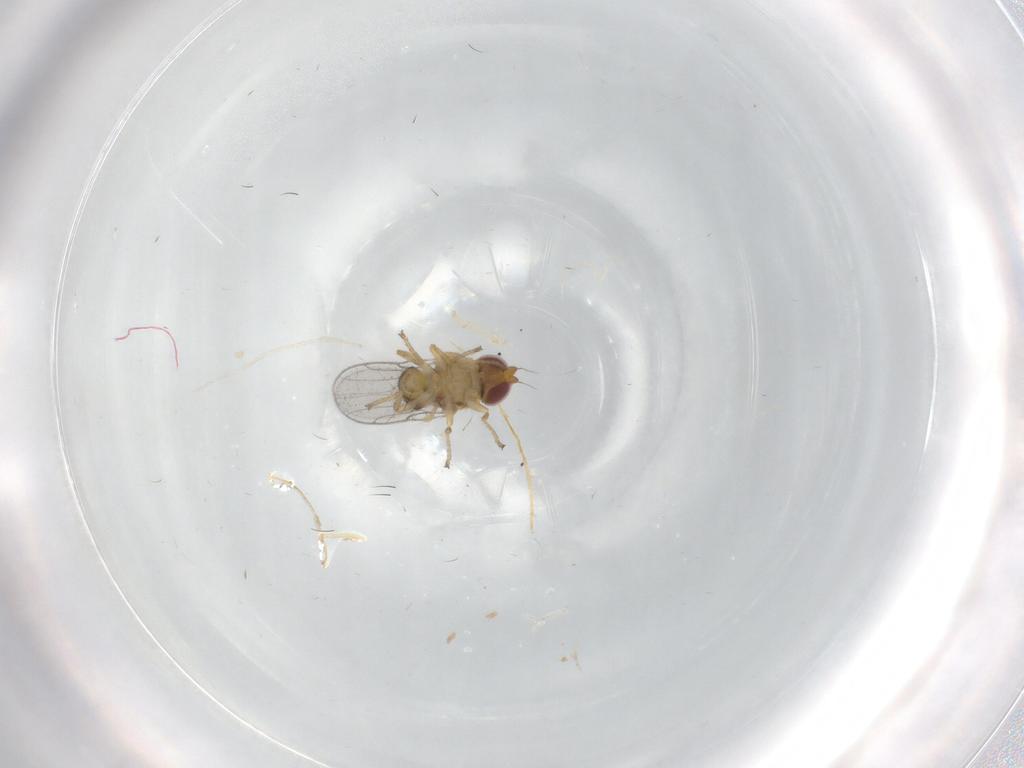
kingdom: Animalia
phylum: Arthropoda
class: Insecta
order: Diptera
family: Chloropidae
